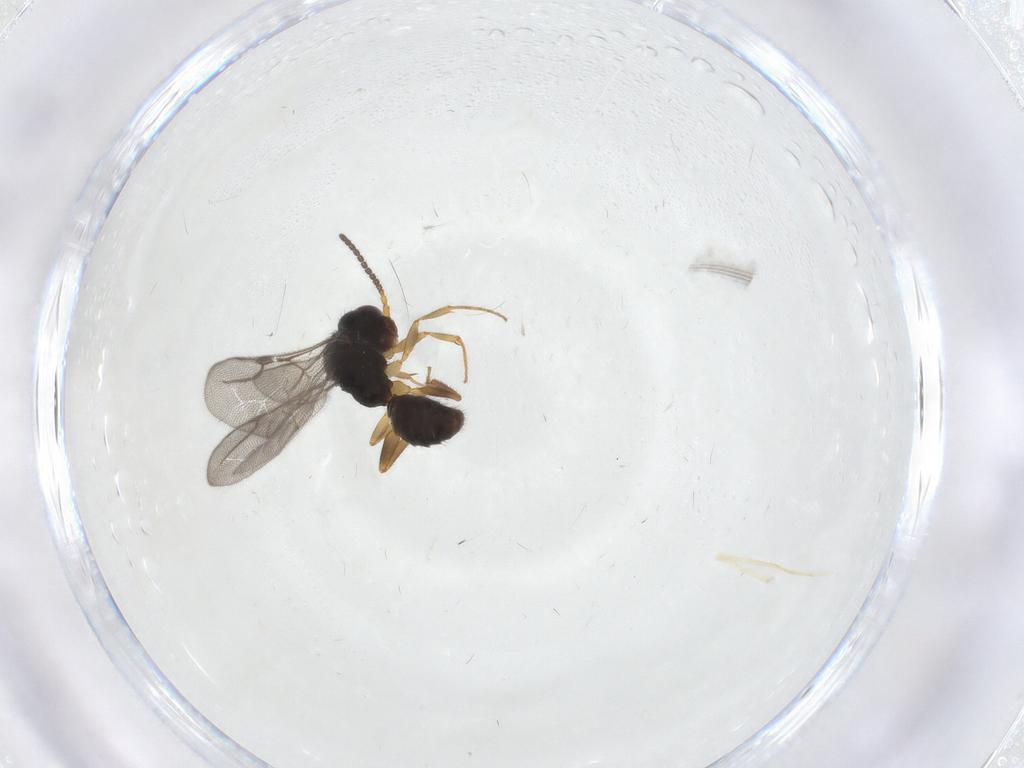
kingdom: Animalia
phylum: Arthropoda
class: Insecta
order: Hymenoptera
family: Bethylidae
